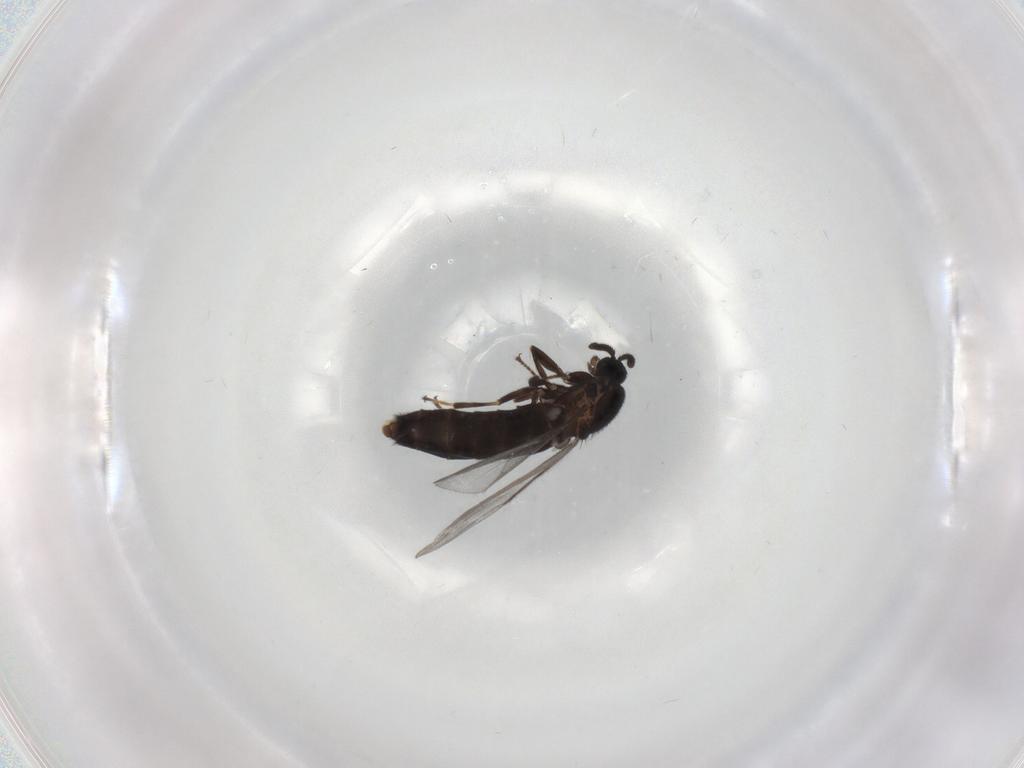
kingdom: Animalia
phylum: Arthropoda
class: Insecta
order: Diptera
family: Scatopsidae
